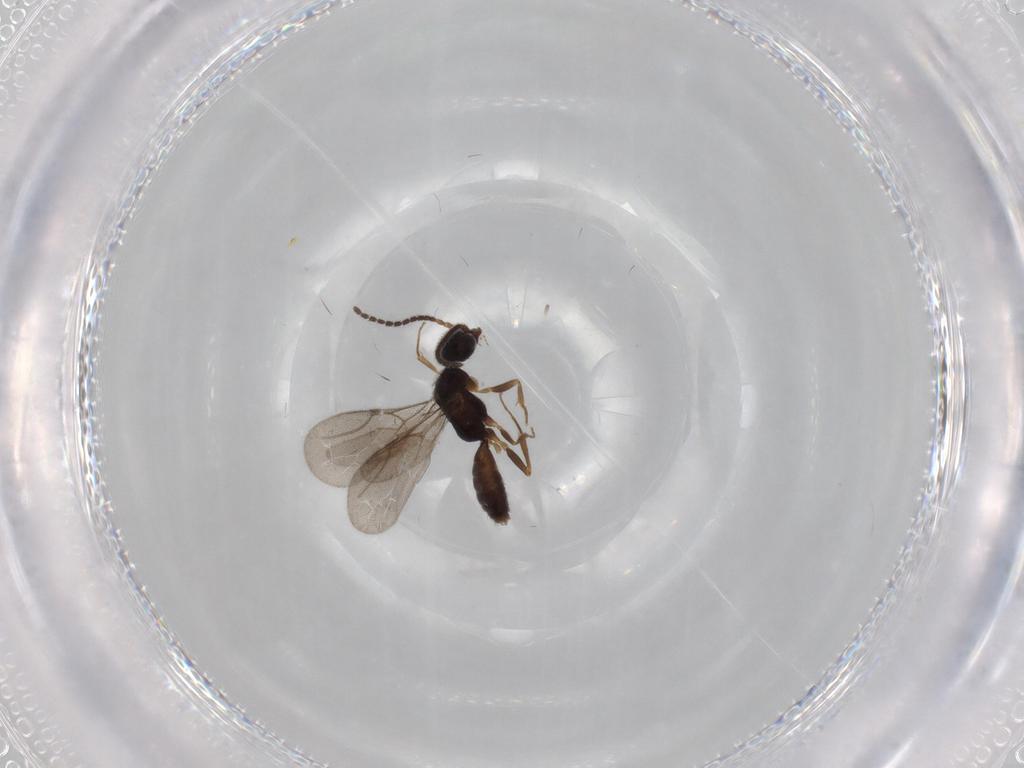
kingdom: Animalia
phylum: Arthropoda
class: Insecta
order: Hymenoptera
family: Bethylidae
